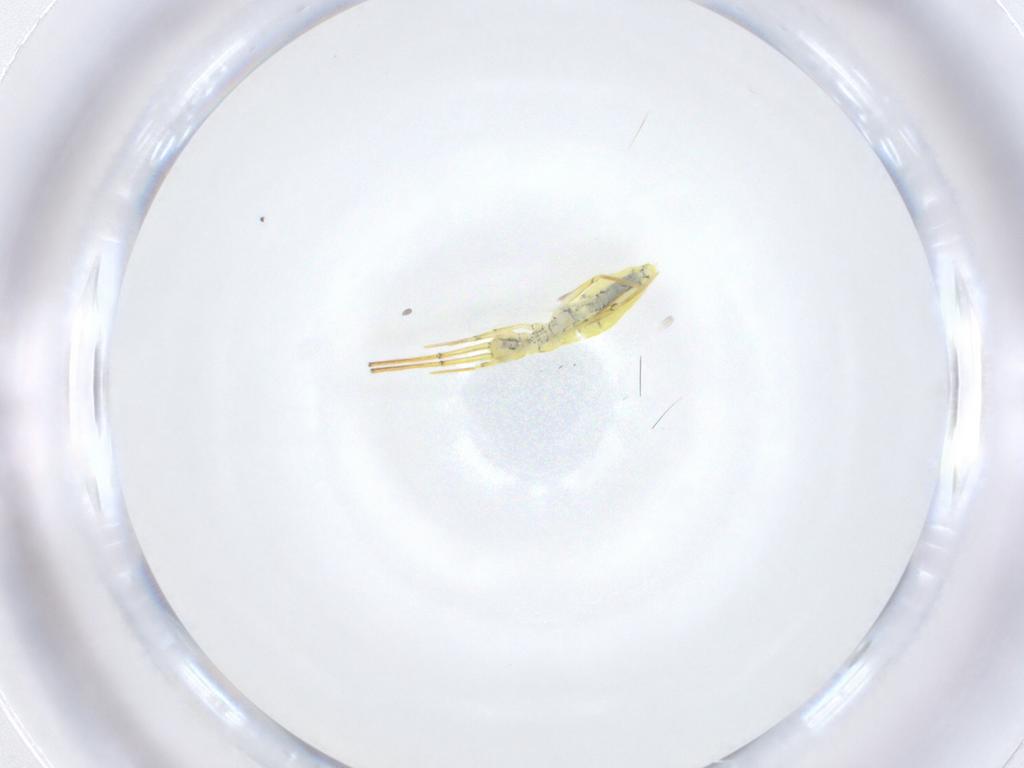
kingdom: Animalia
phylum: Arthropoda
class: Collembola
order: Entomobryomorpha
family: Entomobryidae
